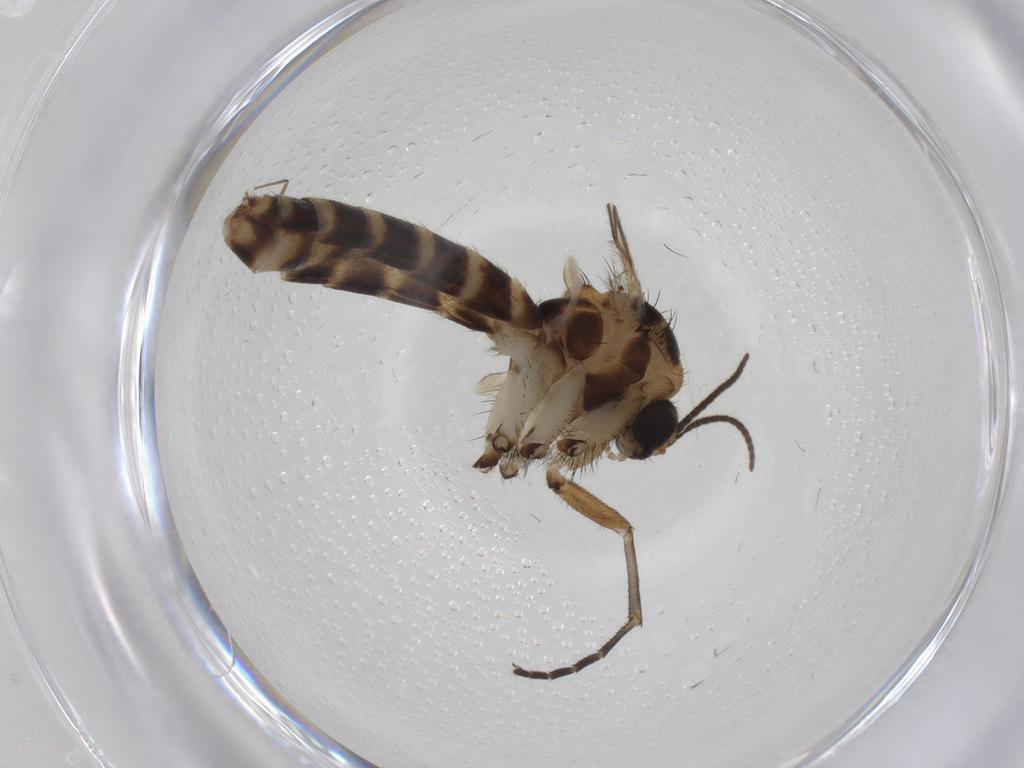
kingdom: Animalia
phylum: Arthropoda
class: Insecta
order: Diptera
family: Mycetophilidae
